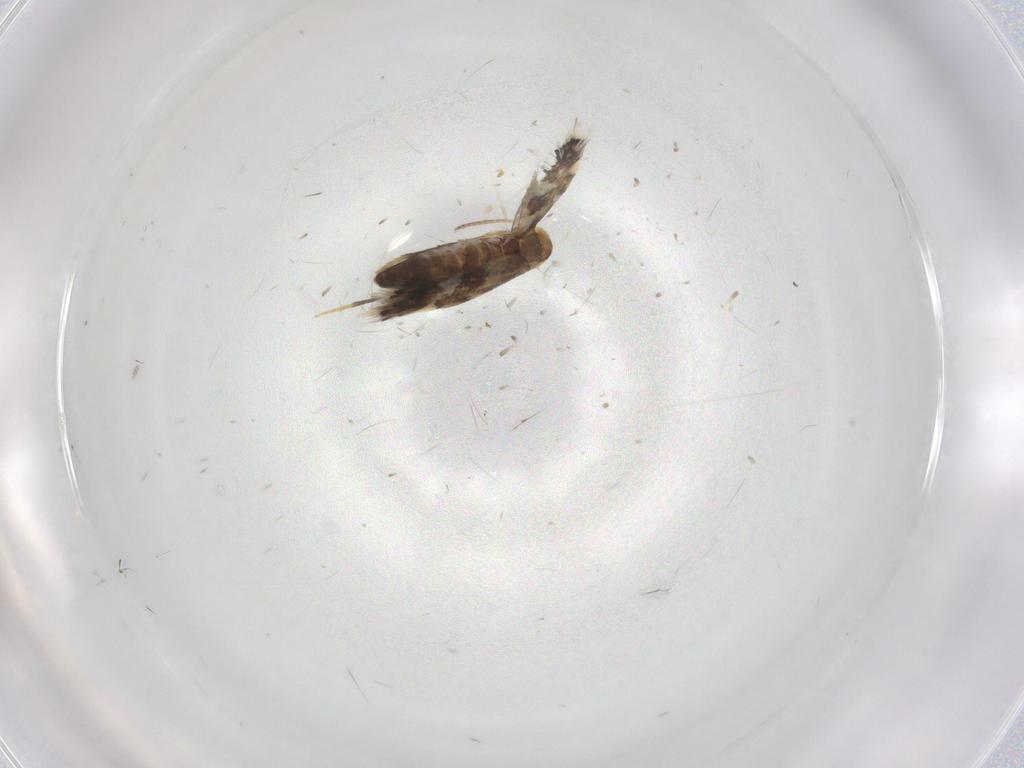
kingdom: Animalia
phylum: Arthropoda
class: Insecta
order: Lepidoptera
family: Heliozelidae
